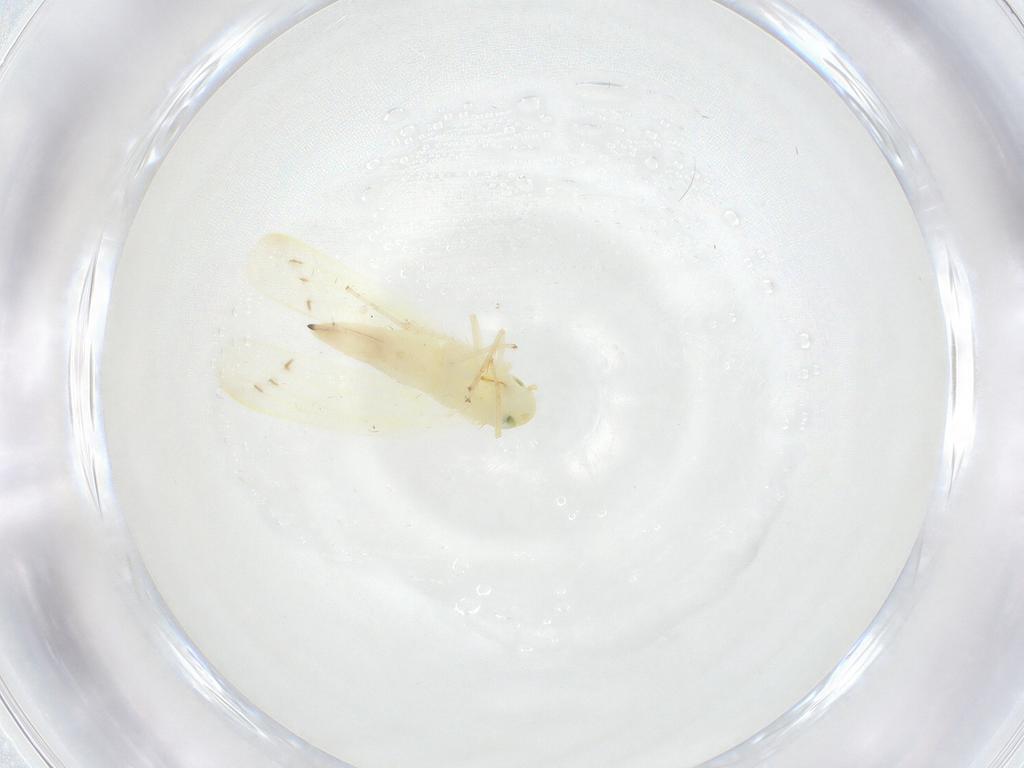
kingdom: Animalia
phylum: Arthropoda
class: Insecta
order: Hemiptera
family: Cicadellidae
